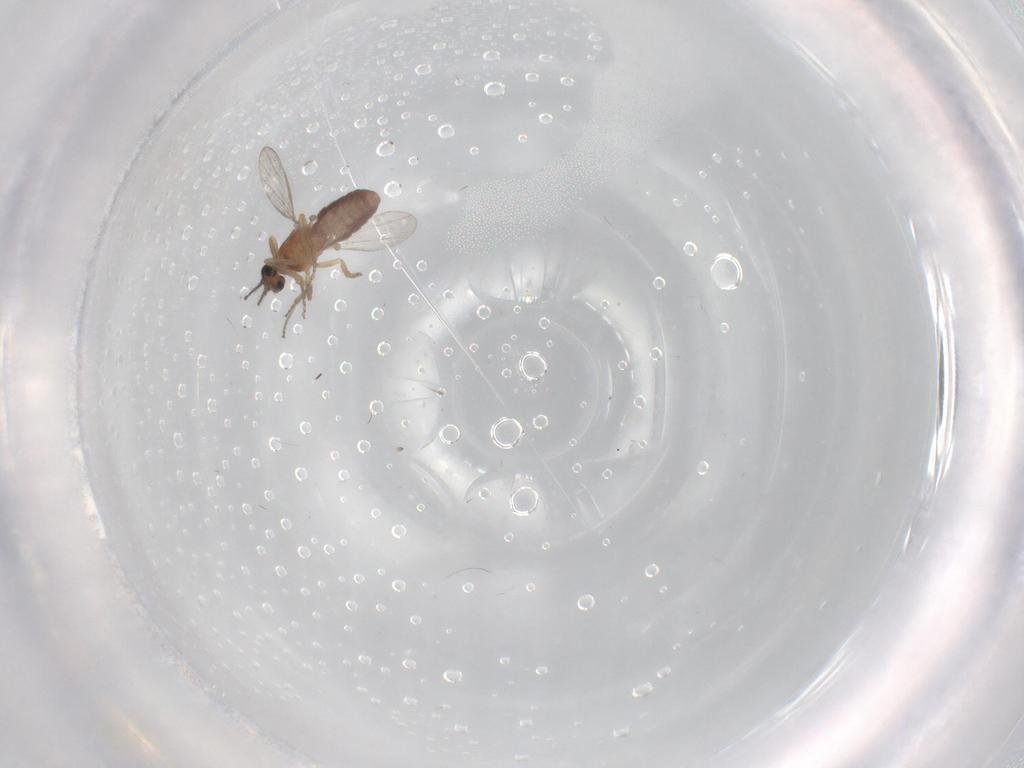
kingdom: Animalia
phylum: Arthropoda
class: Insecta
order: Diptera
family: Ceratopogonidae
